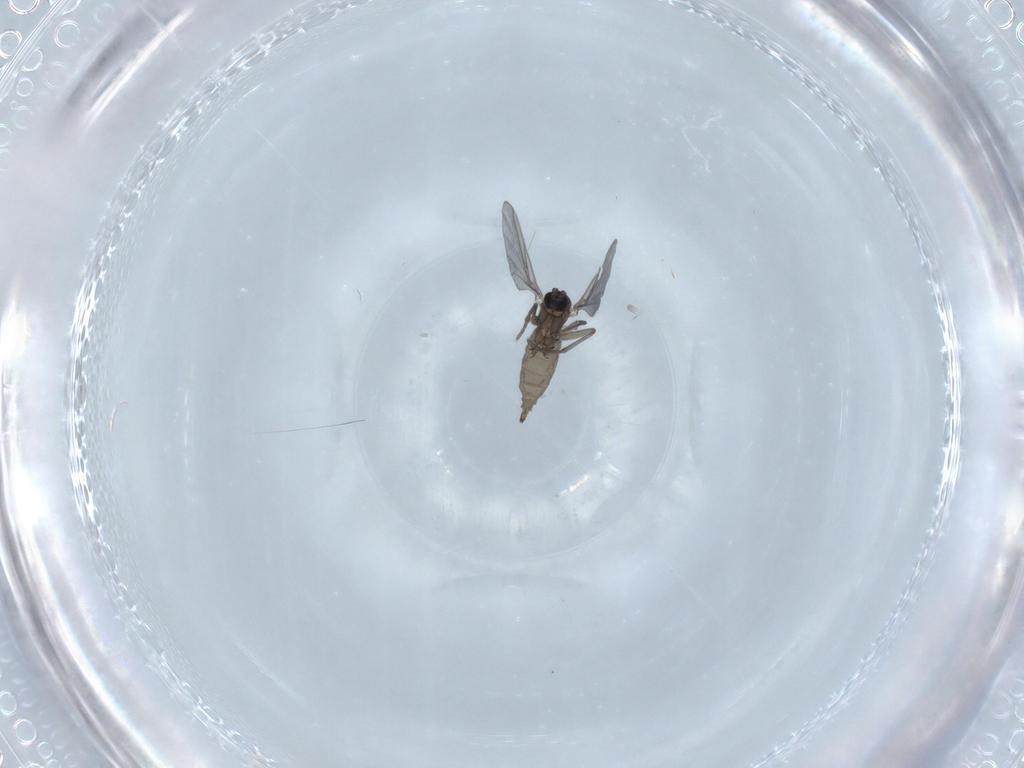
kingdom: Animalia
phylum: Arthropoda
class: Insecta
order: Diptera
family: Sciaridae
